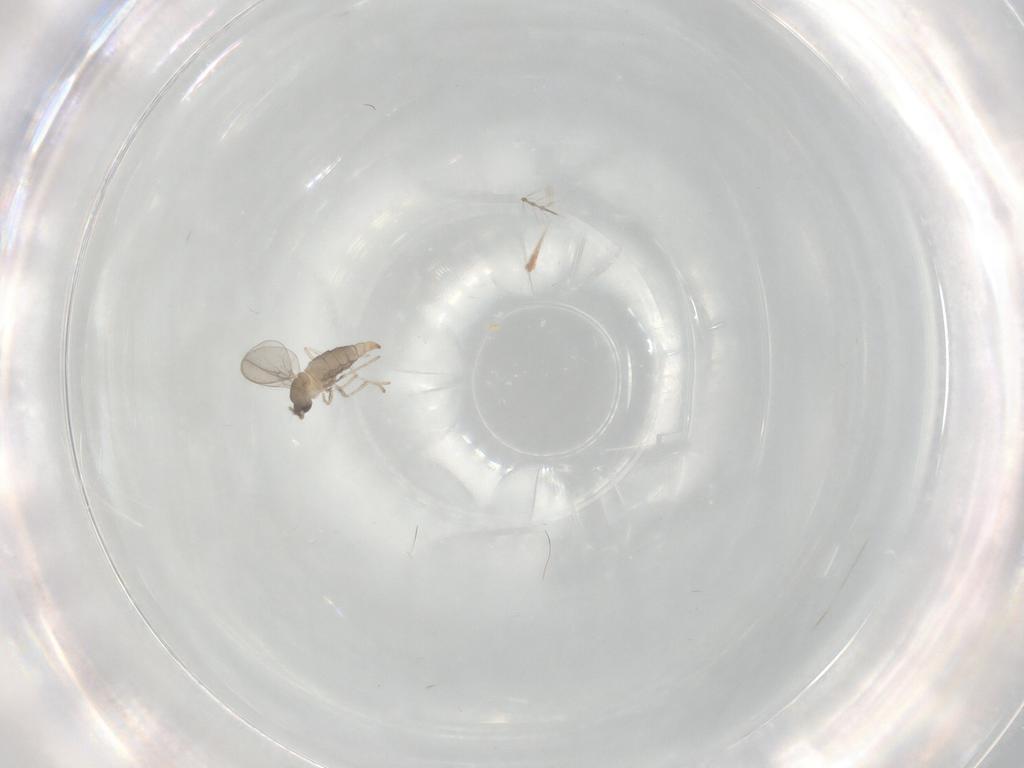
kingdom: Animalia
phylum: Arthropoda
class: Insecta
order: Diptera
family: Cecidomyiidae
